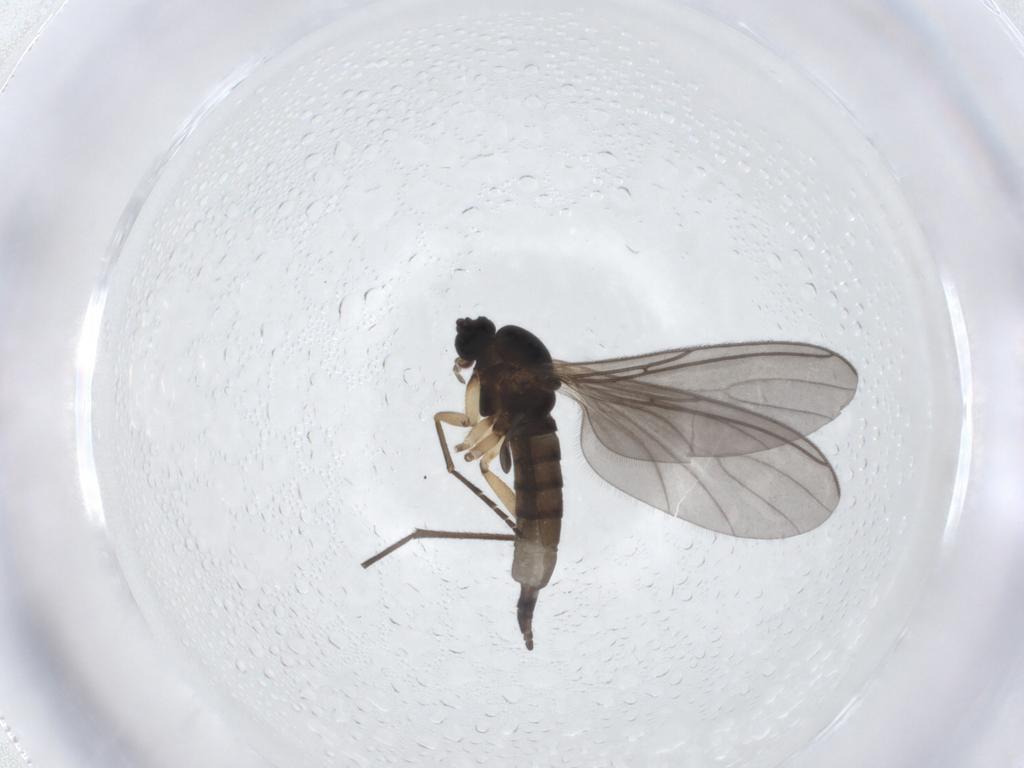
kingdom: Animalia
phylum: Arthropoda
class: Insecta
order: Diptera
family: Sciaridae
